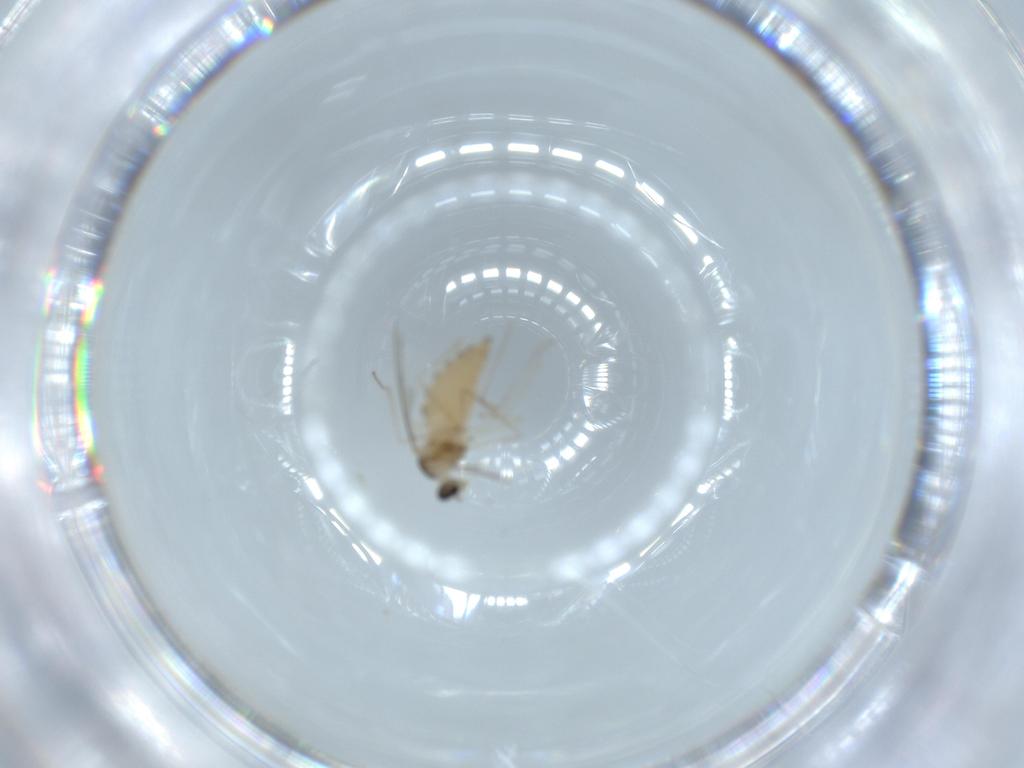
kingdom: Animalia
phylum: Arthropoda
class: Insecta
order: Diptera
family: Cecidomyiidae
